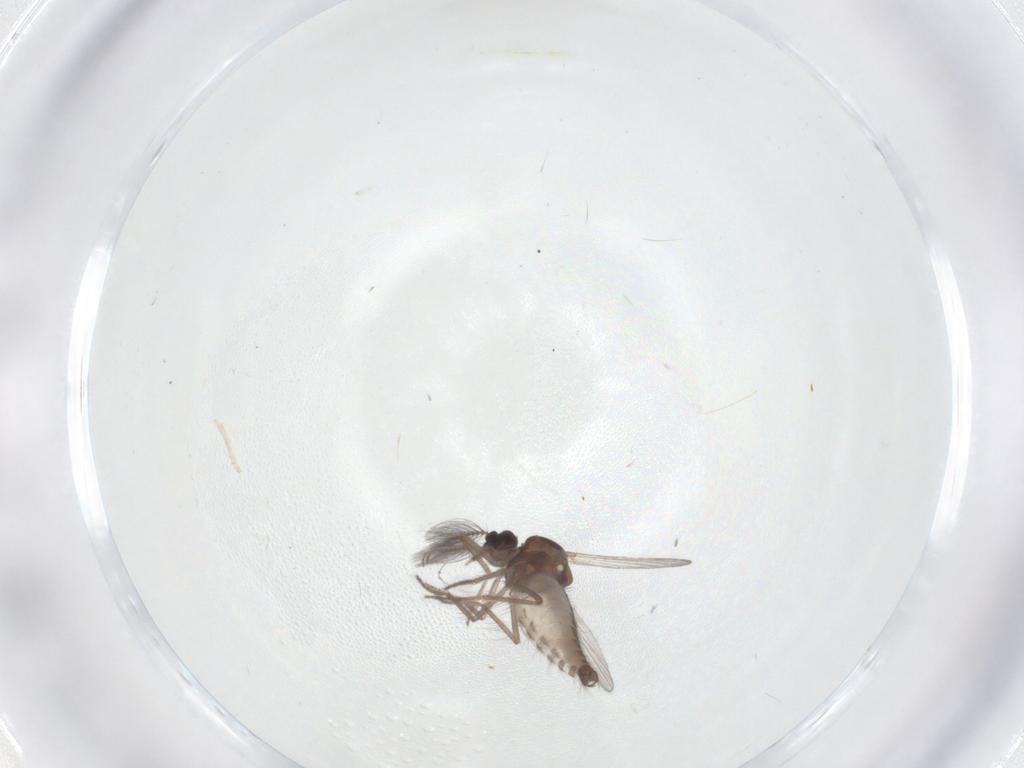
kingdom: Animalia
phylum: Arthropoda
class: Insecta
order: Diptera
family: Ceratopogonidae
